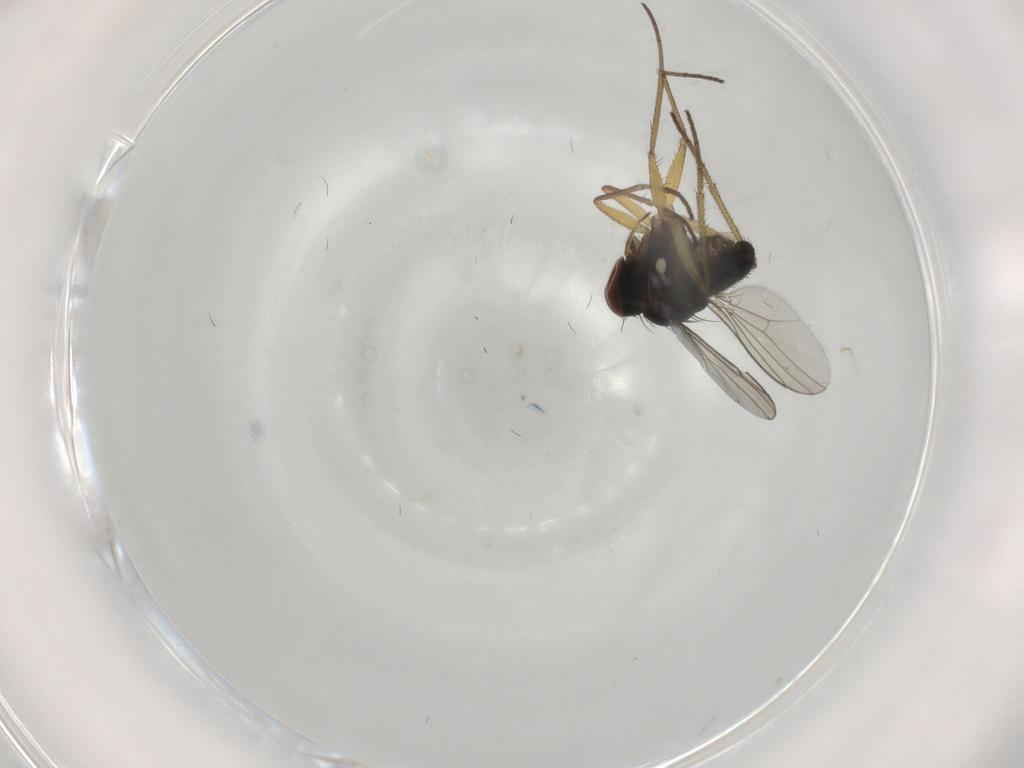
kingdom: Animalia
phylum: Arthropoda
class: Insecta
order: Diptera
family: Dolichopodidae
